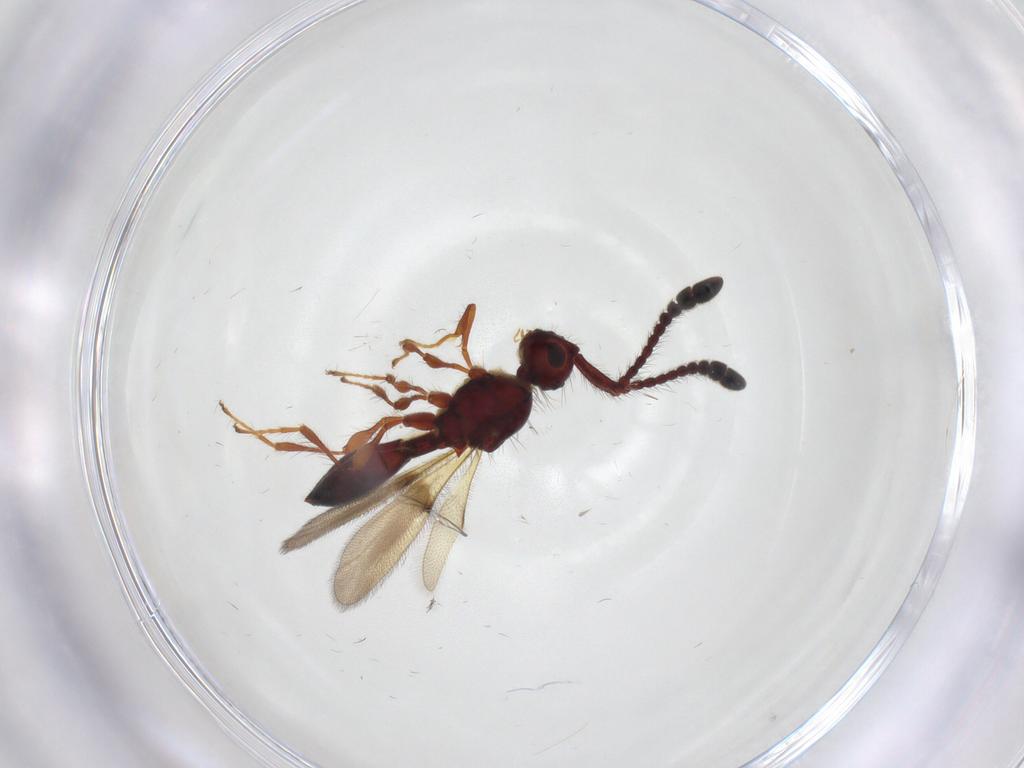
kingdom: Animalia
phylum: Arthropoda
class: Insecta
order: Hymenoptera
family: Diapriidae
